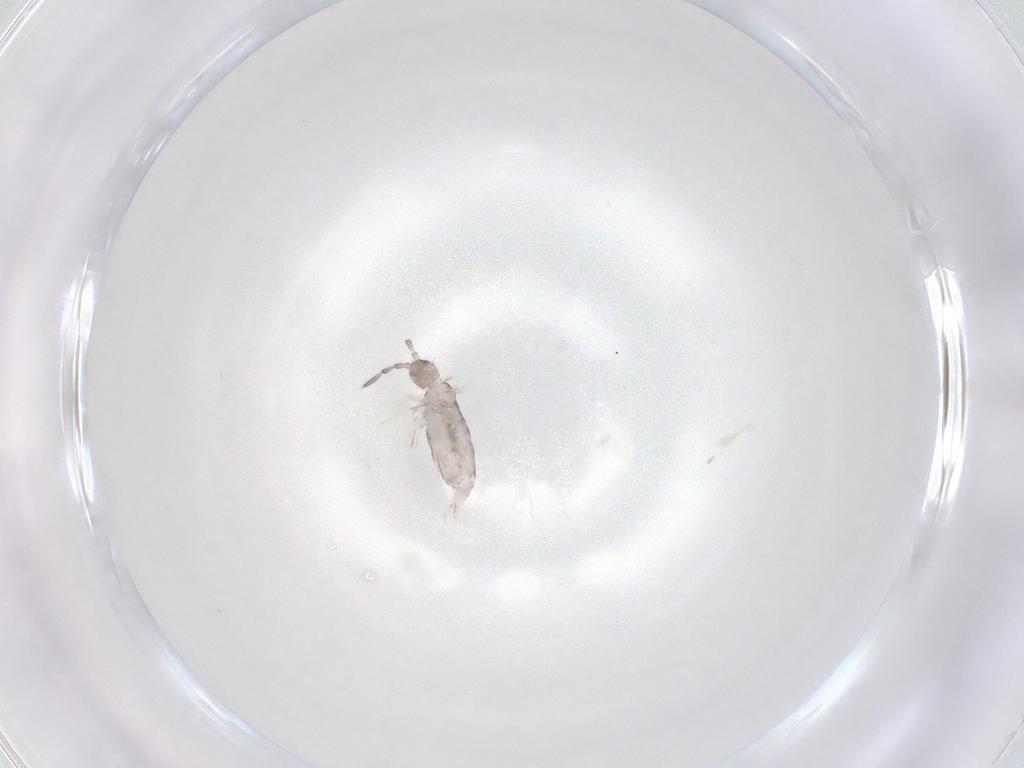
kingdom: Animalia
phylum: Arthropoda
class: Collembola
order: Poduromorpha
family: Hypogastruridae
